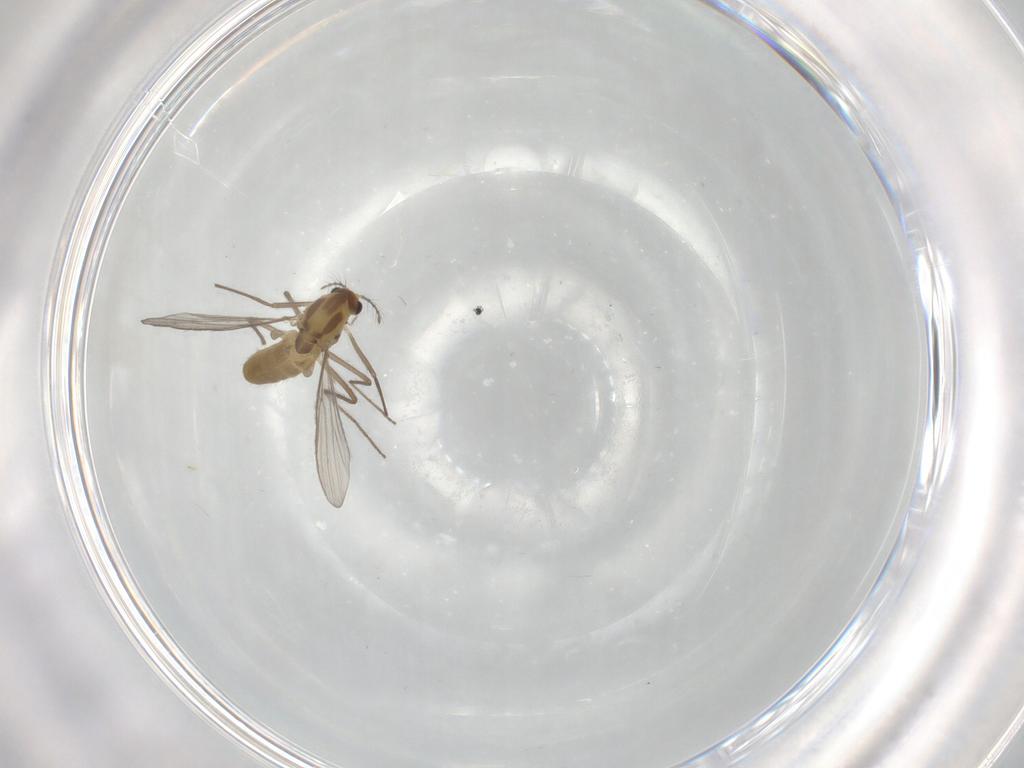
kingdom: Animalia
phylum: Arthropoda
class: Insecta
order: Diptera
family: Chironomidae
